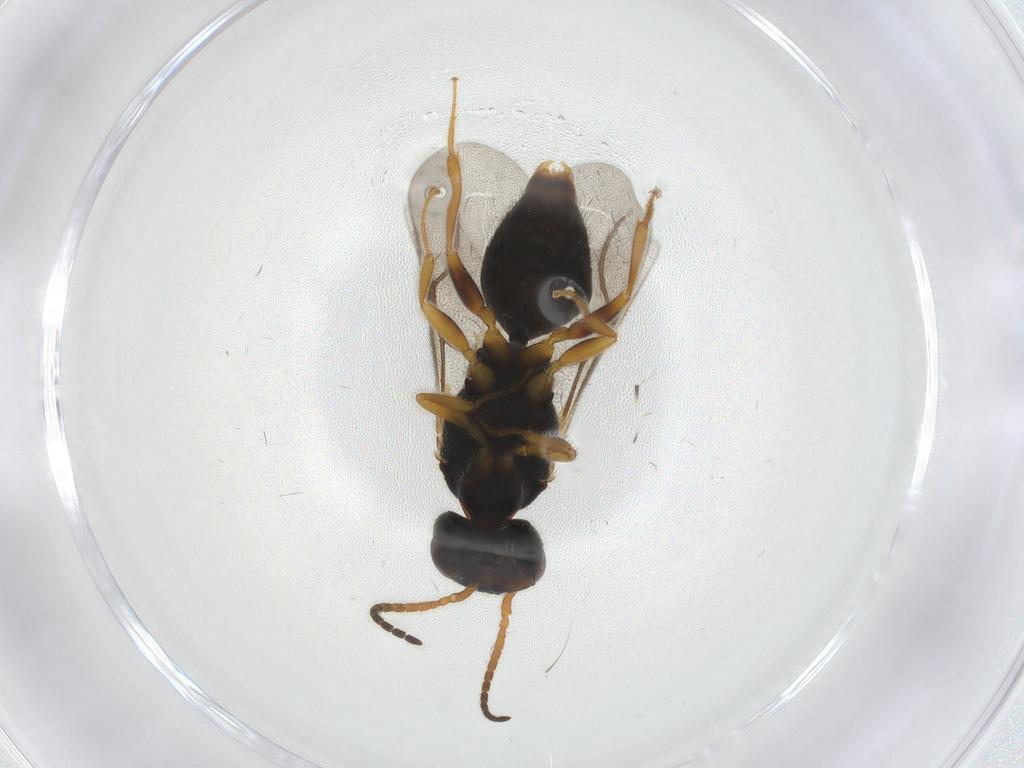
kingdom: Animalia
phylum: Arthropoda
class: Insecta
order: Hymenoptera
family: Bethylidae
